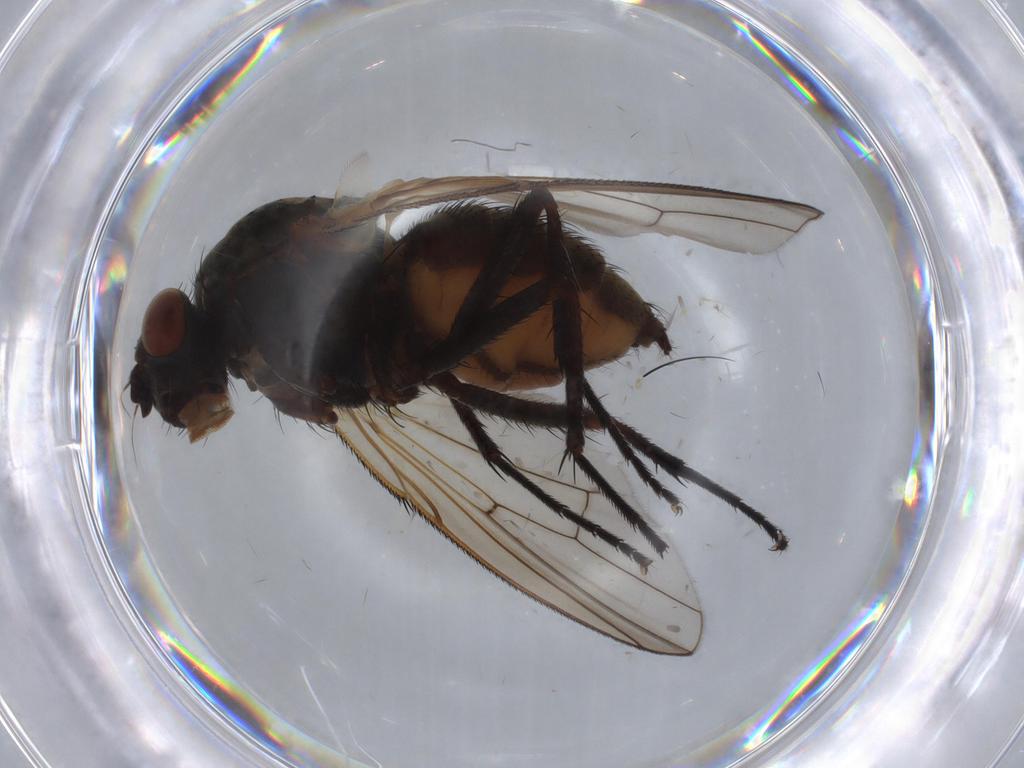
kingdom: Animalia
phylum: Arthropoda
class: Insecta
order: Diptera
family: Anthomyiidae
